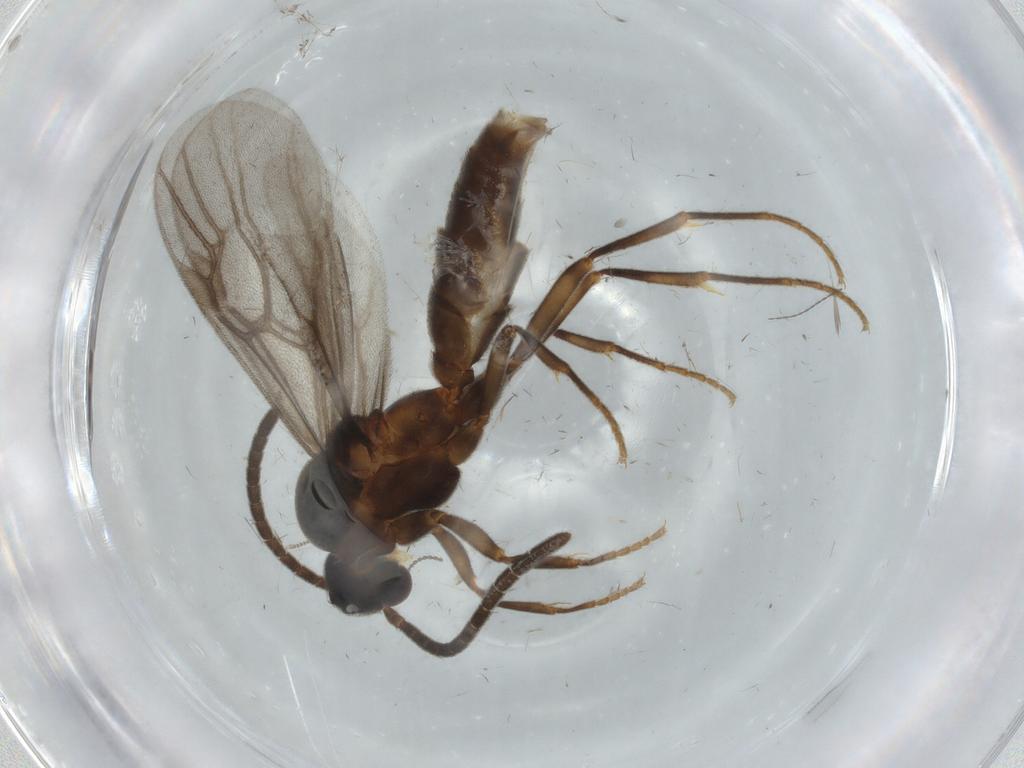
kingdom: Animalia
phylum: Arthropoda
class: Insecta
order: Hymenoptera
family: Formicidae
